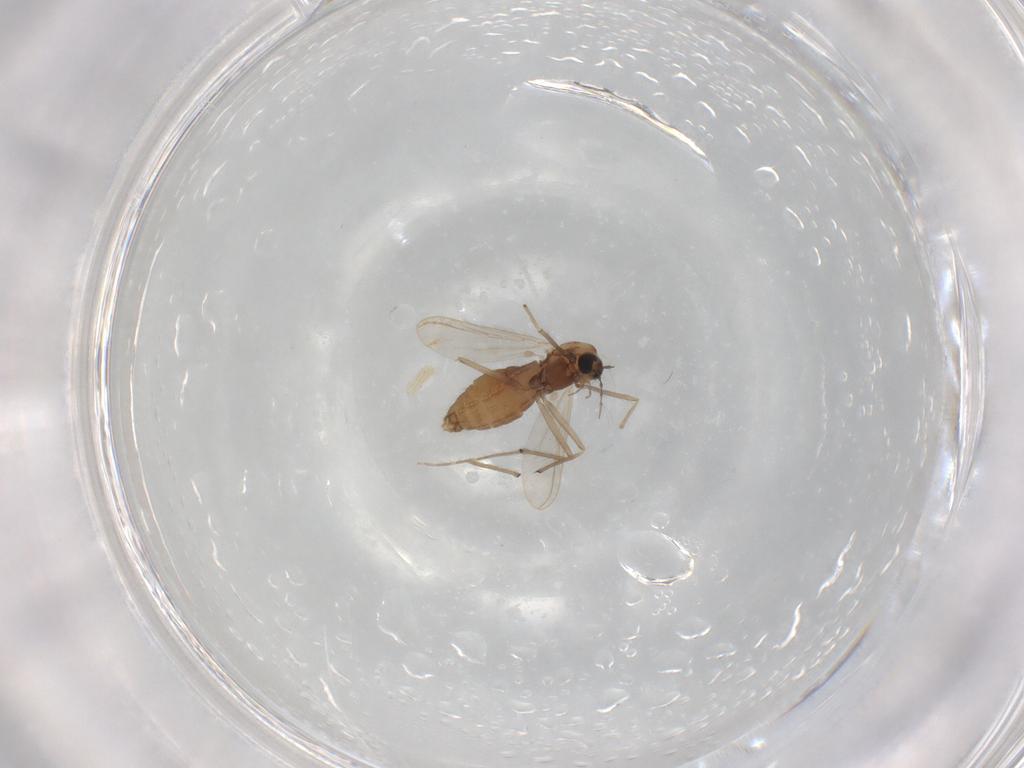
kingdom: Animalia
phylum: Arthropoda
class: Insecta
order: Diptera
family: Chironomidae
